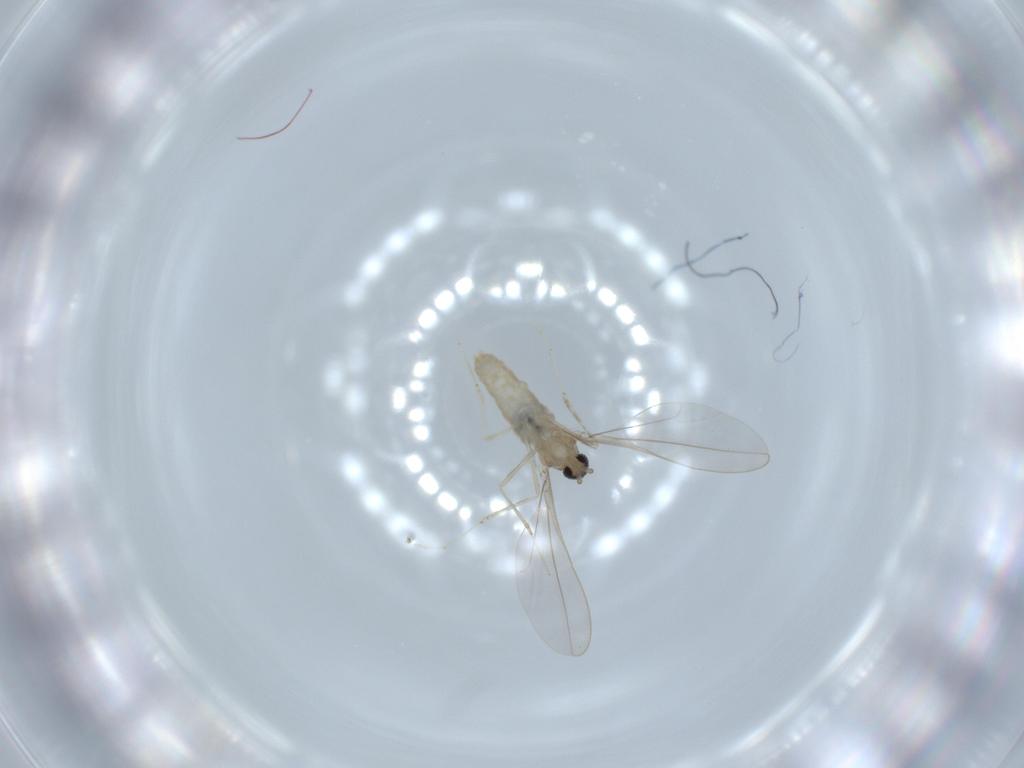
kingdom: Animalia
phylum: Arthropoda
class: Insecta
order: Diptera
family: Cecidomyiidae
